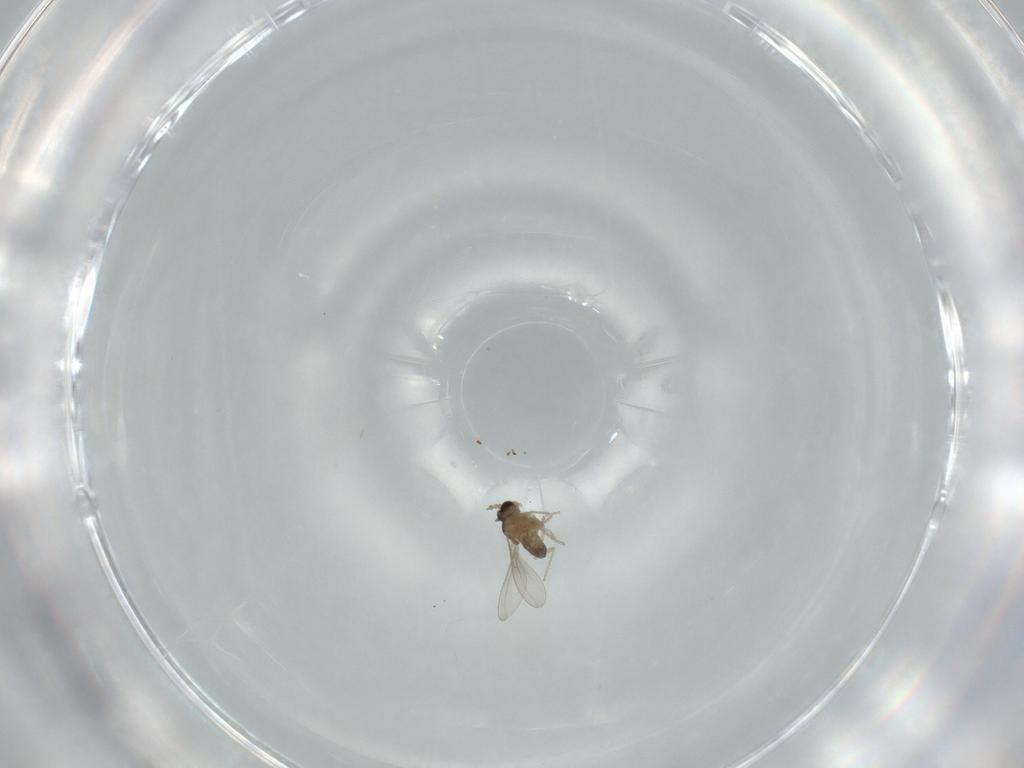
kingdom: Animalia
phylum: Arthropoda
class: Insecta
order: Diptera
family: Cecidomyiidae
